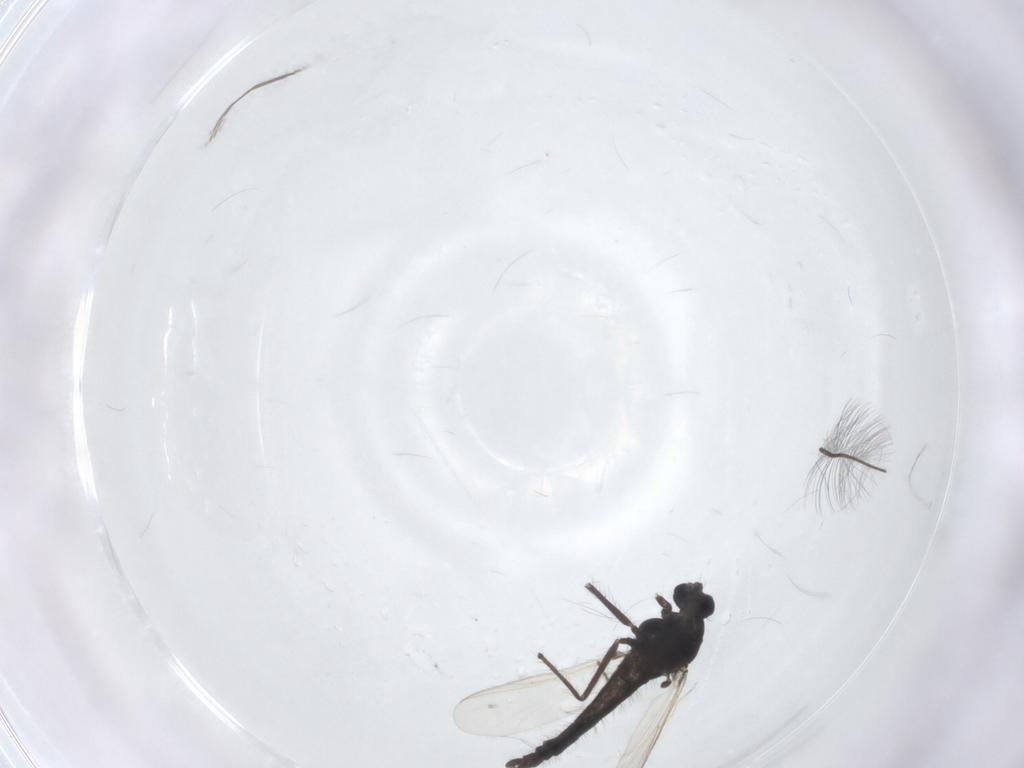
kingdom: Animalia
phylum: Arthropoda
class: Insecta
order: Diptera
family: Chironomidae
